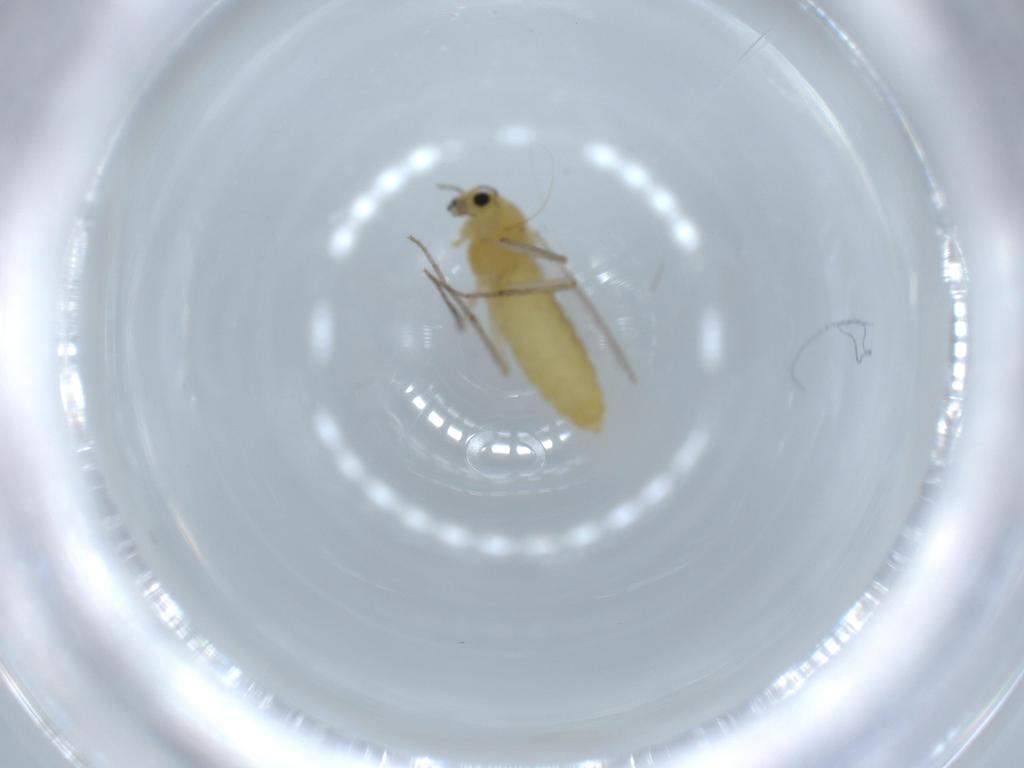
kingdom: Animalia
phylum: Arthropoda
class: Insecta
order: Diptera
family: Chironomidae
